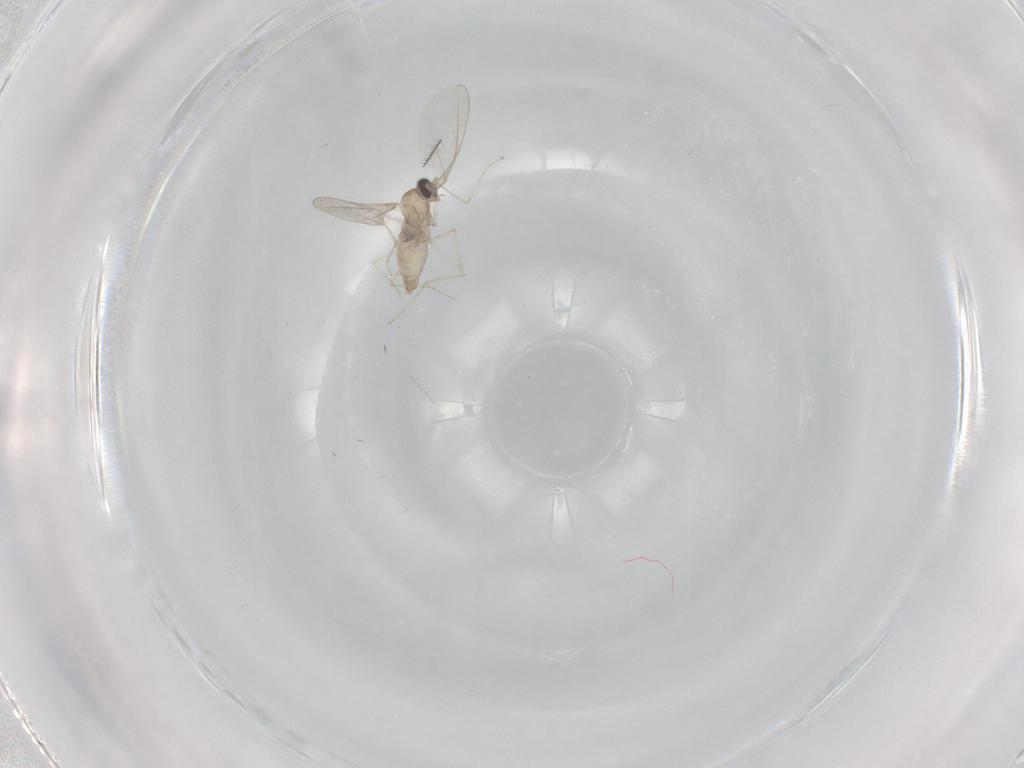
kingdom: Animalia
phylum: Arthropoda
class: Insecta
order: Diptera
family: Cecidomyiidae
